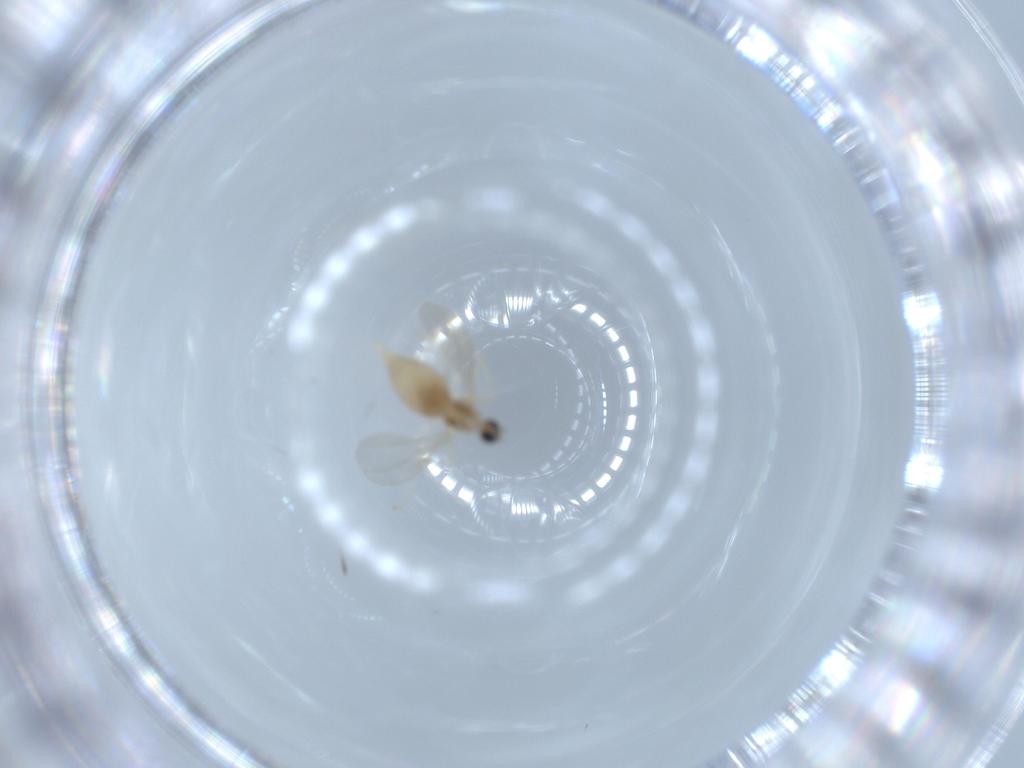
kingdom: Animalia
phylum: Arthropoda
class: Insecta
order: Diptera
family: Cecidomyiidae
